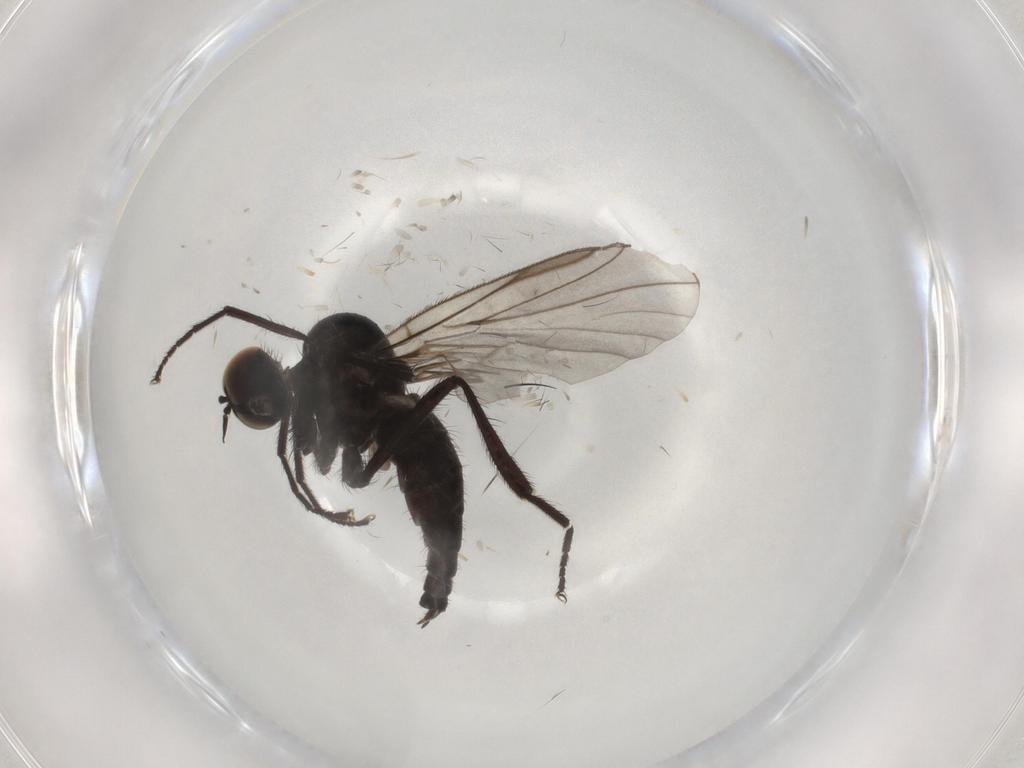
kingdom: Animalia
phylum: Arthropoda
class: Insecta
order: Diptera
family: Hybotidae
